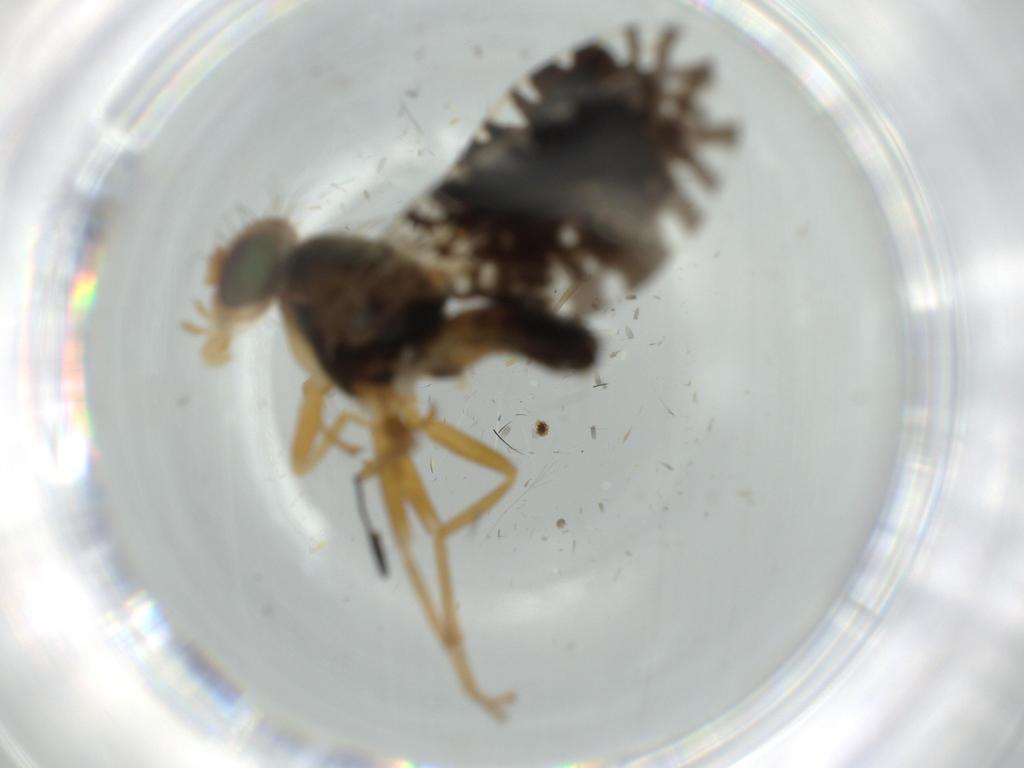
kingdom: Animalia
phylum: Arthropoda
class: Insecta
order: Diptera
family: Tephritidae
